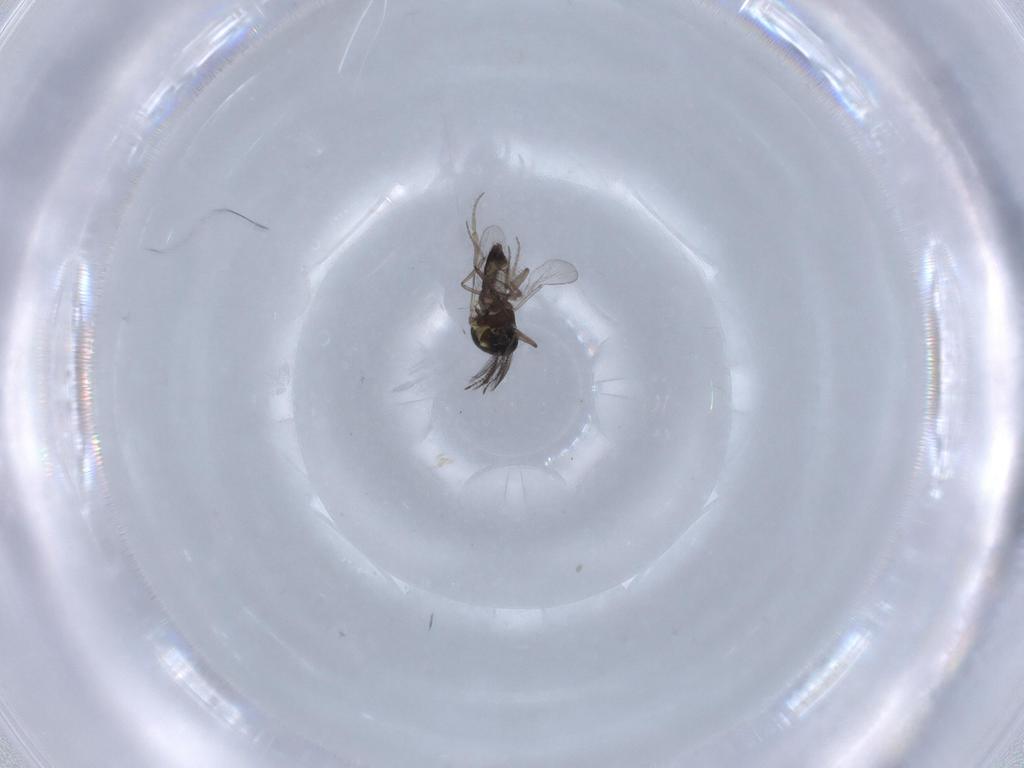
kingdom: Animalia
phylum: Arthropoda
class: Insecta
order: Diptera
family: Ceratopogonidae
